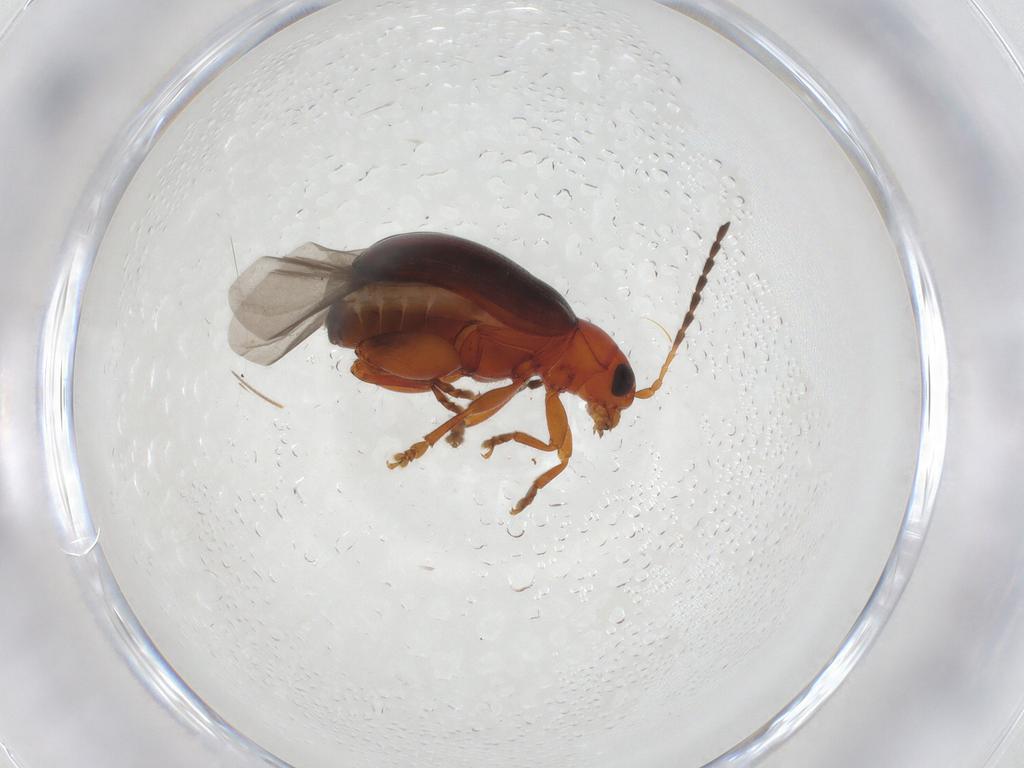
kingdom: Animalia
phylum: Arthropoda
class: Insecta
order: Coleoptera
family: Chrysomelidae
